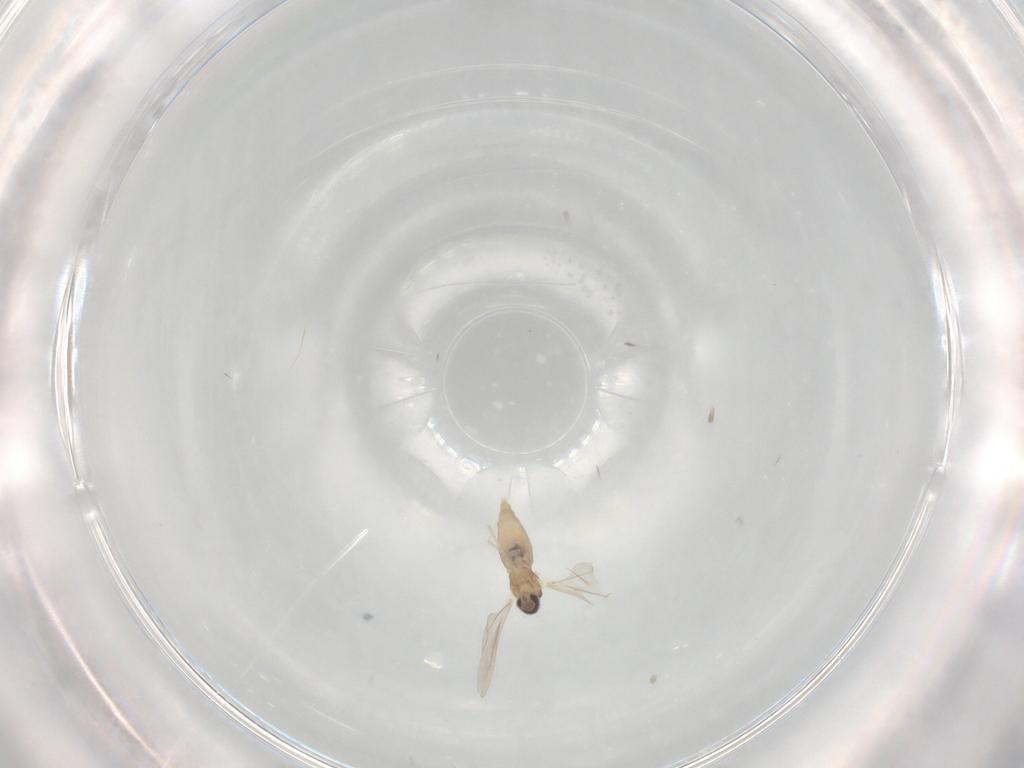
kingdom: Animalia
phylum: Arthropoda
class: Insecta
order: Diptera
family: Cecidomyiidae
